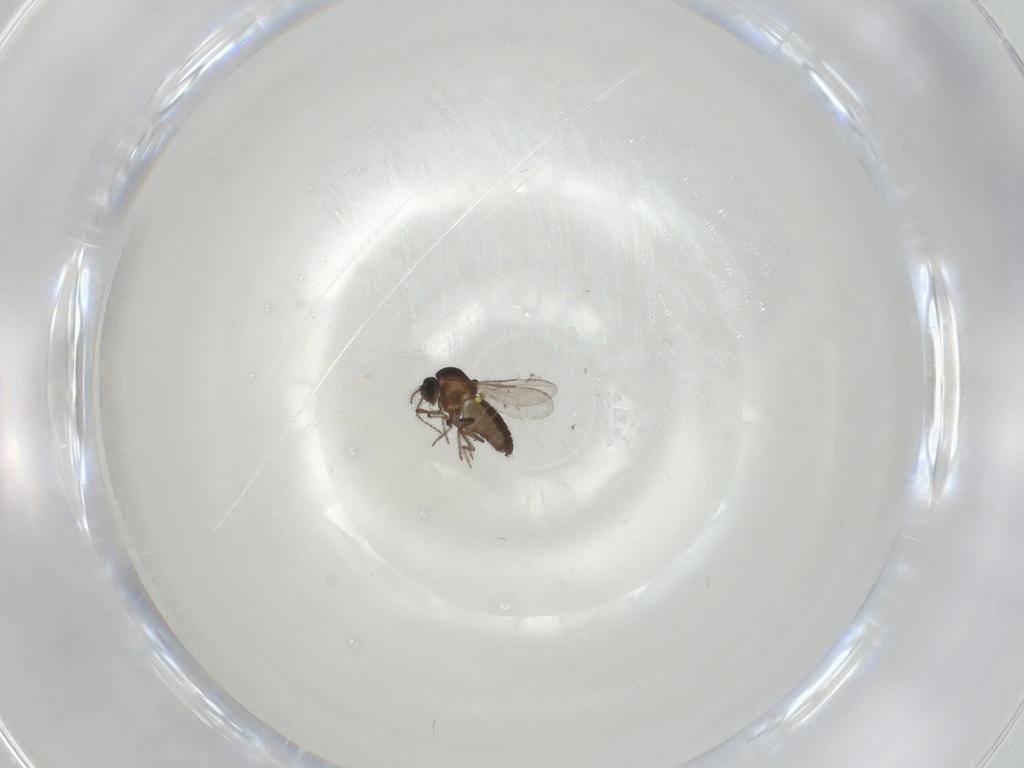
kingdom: Animalia
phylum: Arthropoda
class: Insecta
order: Diptera
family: Ceratopogonidae
